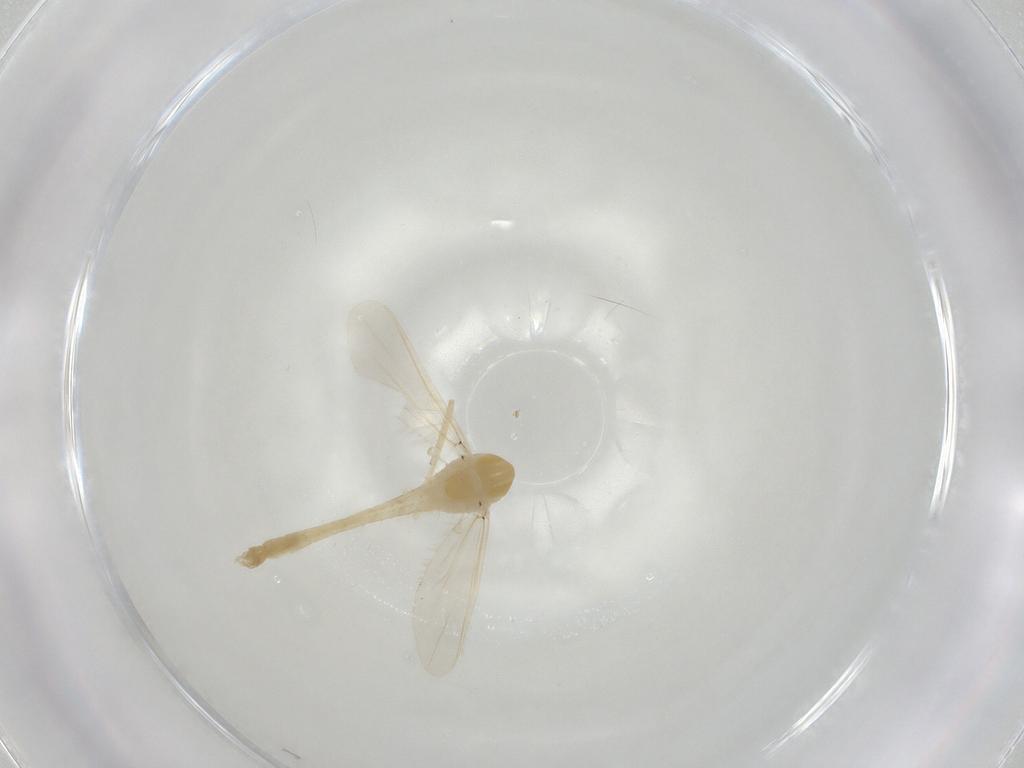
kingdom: Animalia
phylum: Arthropoda
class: Insecta
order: Diptera
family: Chironomidae
